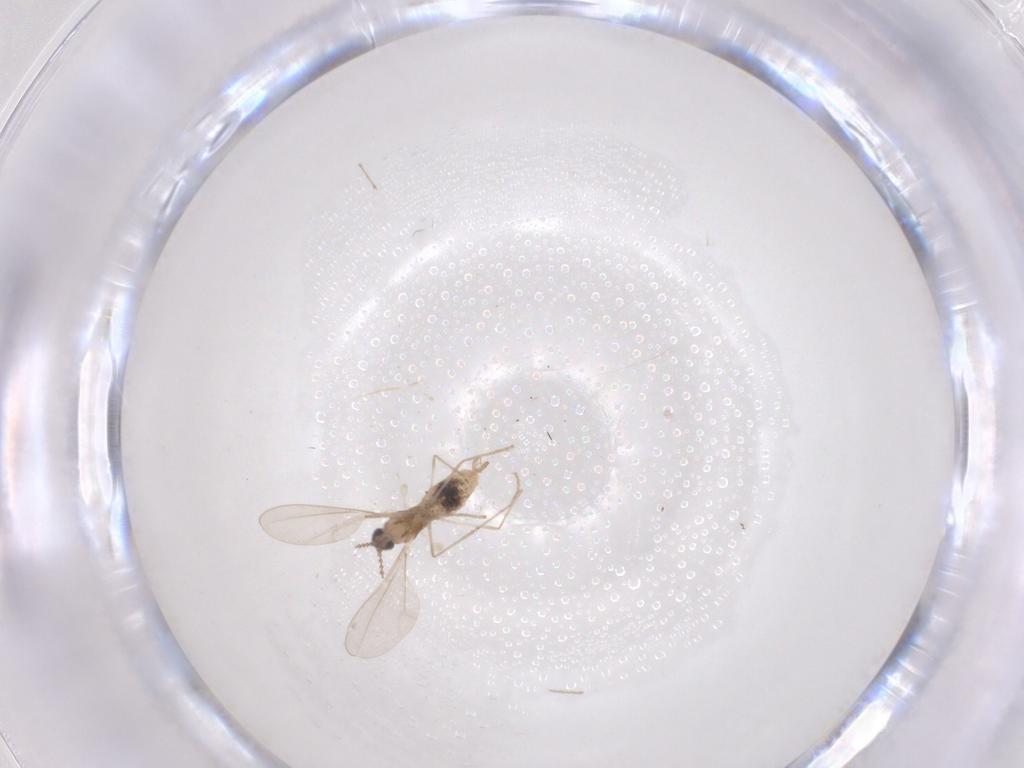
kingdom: Animalia
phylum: Arthropoda
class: Insecta
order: Diptera
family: Cecidomyiidae
